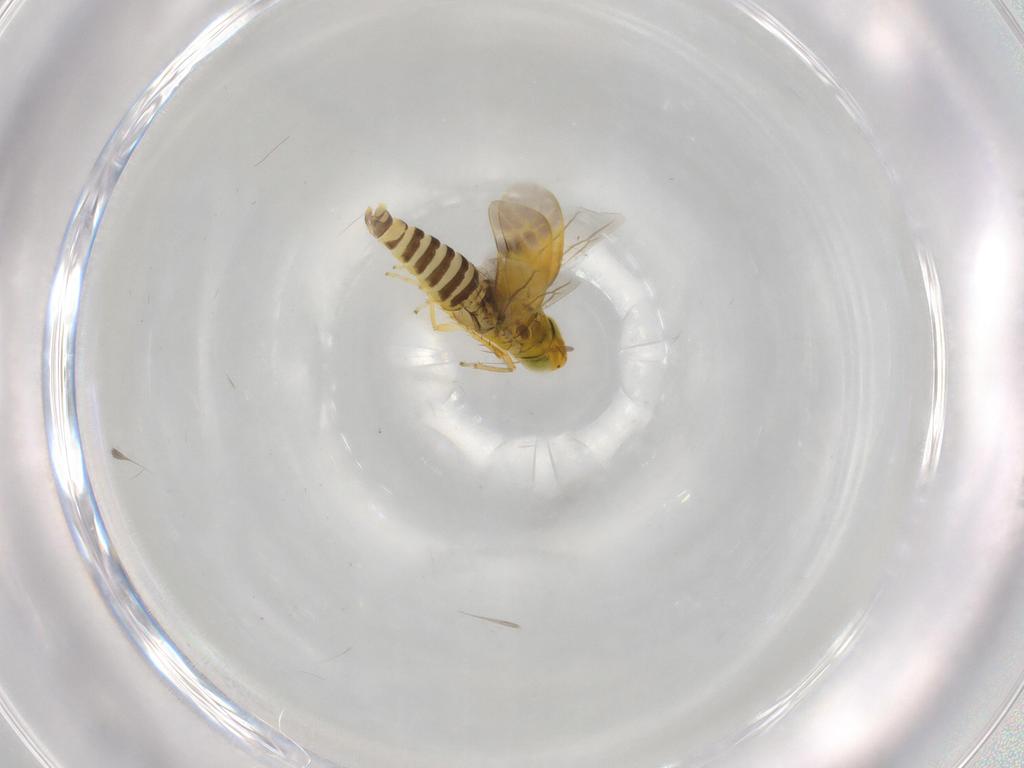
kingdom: Animalia
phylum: Arthropoda
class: Insecta
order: Hemiptera
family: Cicadellidae
